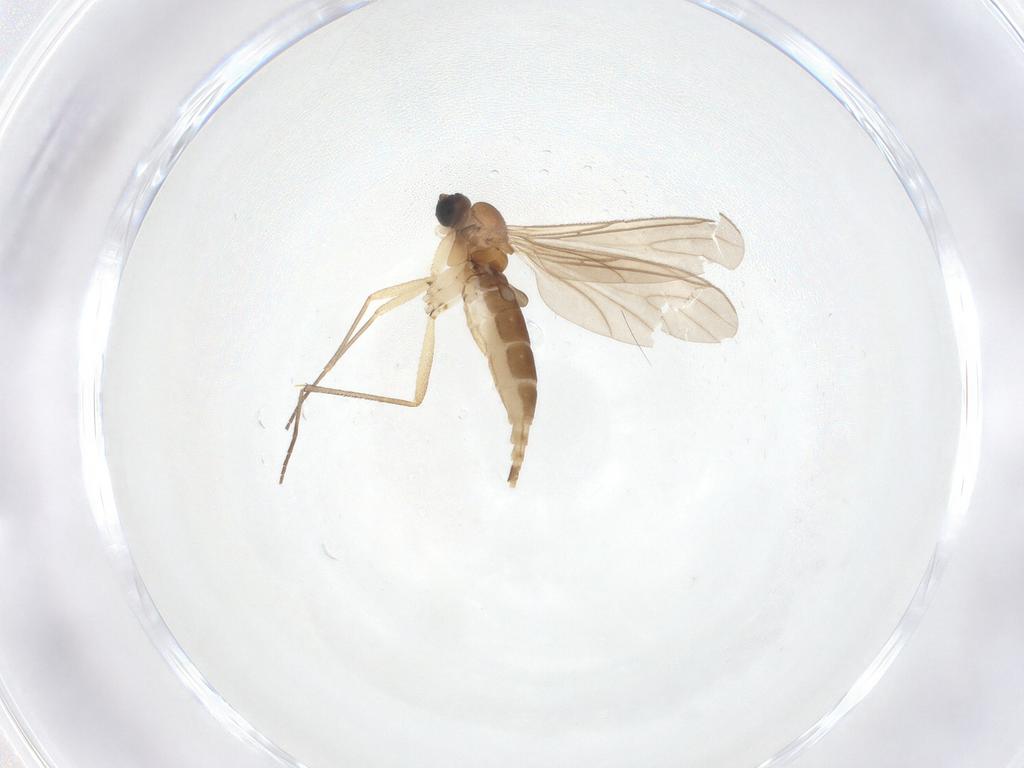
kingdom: Animalia
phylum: Arthropoda
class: Insecta
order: Diptera
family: Sciaridae
